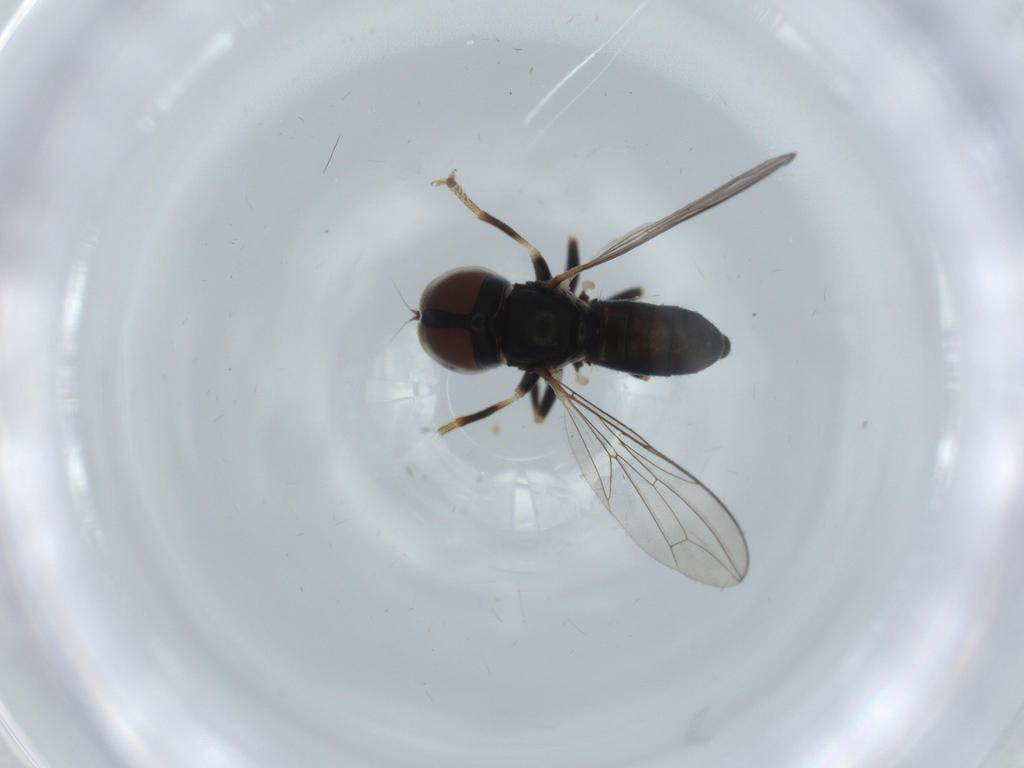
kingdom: Animalia
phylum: Arthropoda
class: Insecta
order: Diptera
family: Pipunculidae
